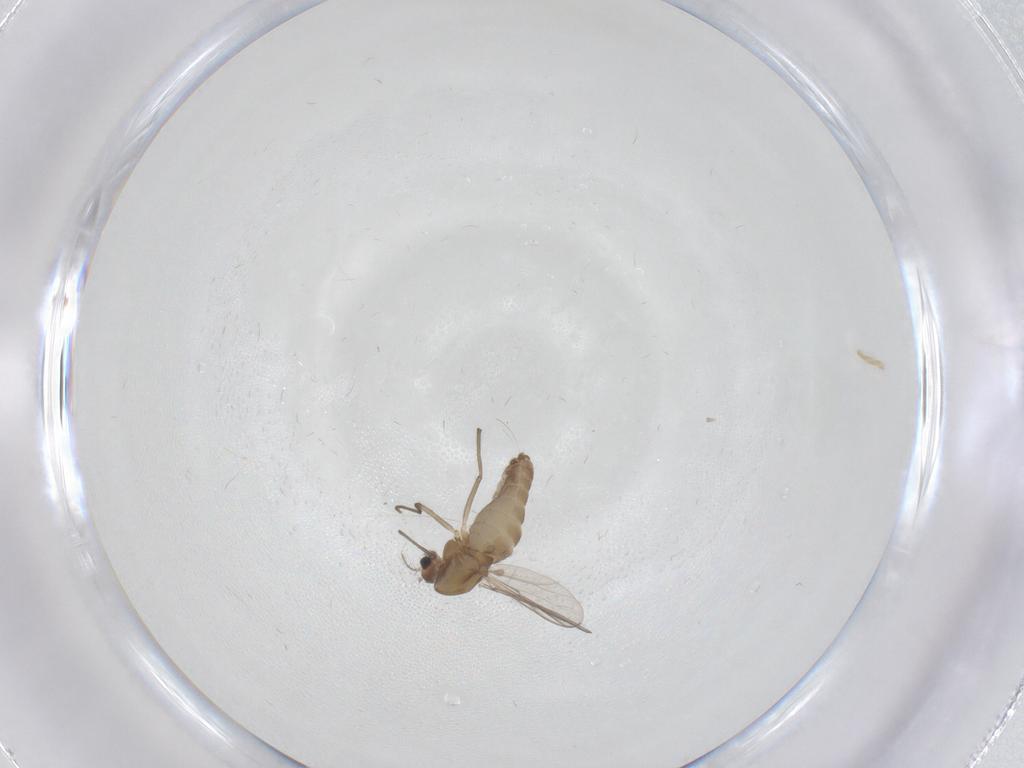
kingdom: Animalia
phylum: Arthropoda
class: Insecta
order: Diptera
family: Chironomidae
